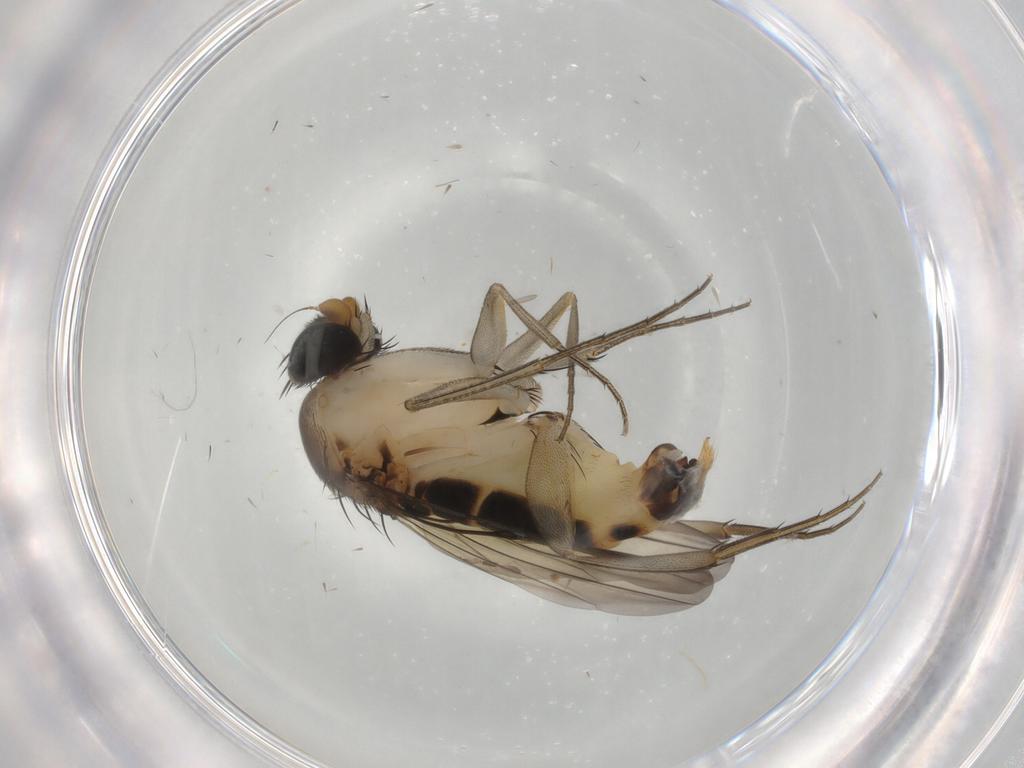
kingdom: Animalia
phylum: Arthropoda
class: Insecta
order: Diptera
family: Phoridae
